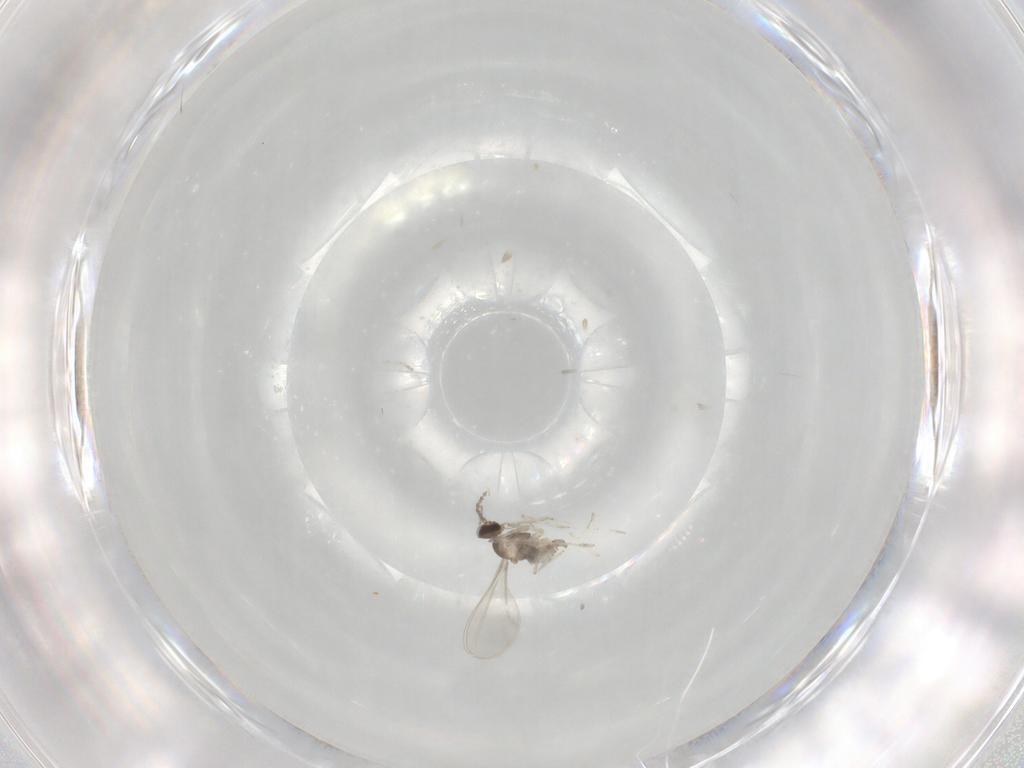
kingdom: Animalia
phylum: Arthropoda
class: Insecta
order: Diptera
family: Cecidomyiidae
